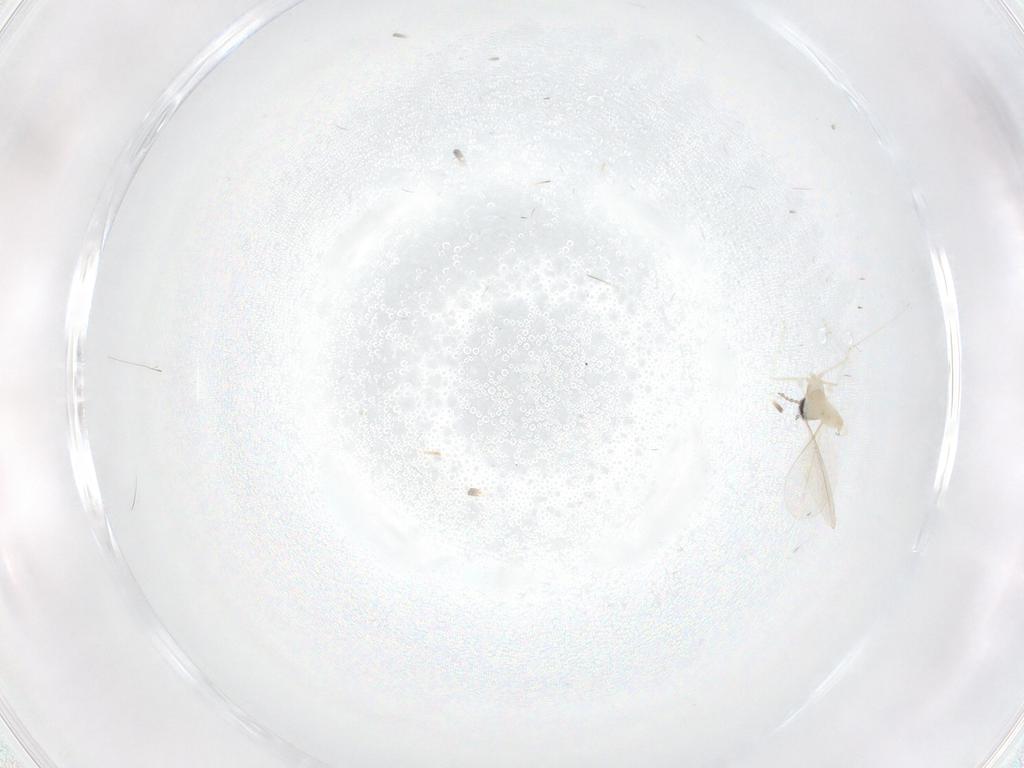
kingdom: Animalia
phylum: Arthropoda
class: Insecta
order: Diptera
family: Cecidomyiidae
